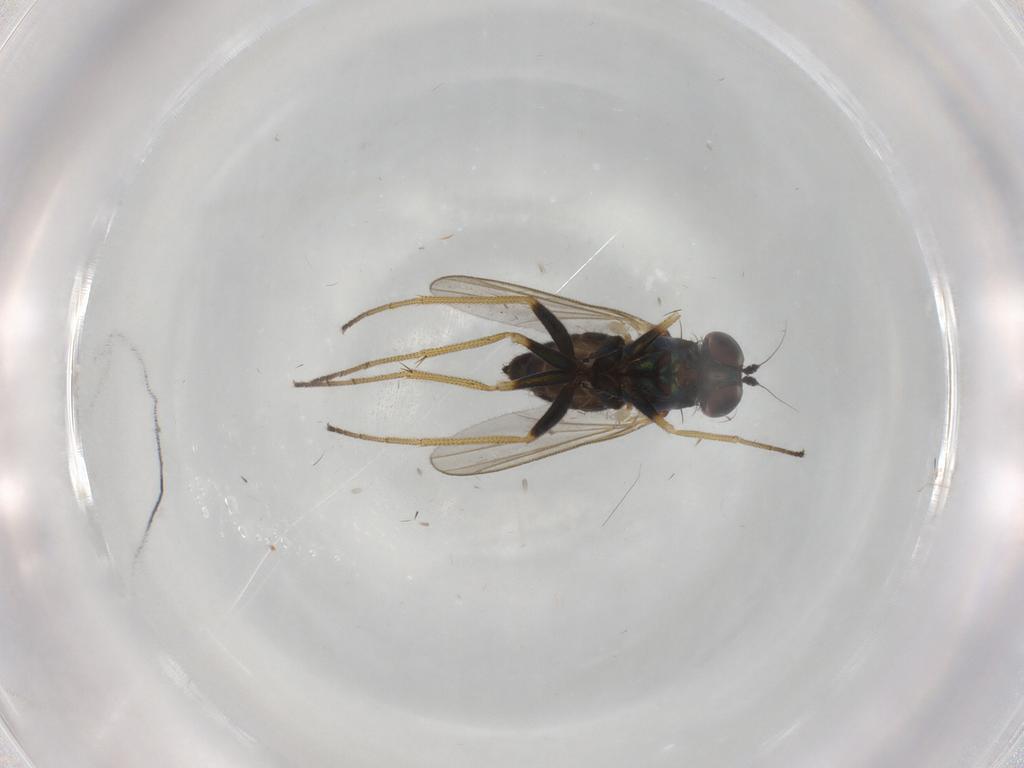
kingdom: Animalia
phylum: Arthropoda
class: Insecta
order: Diptera
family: Dolichopodidae
